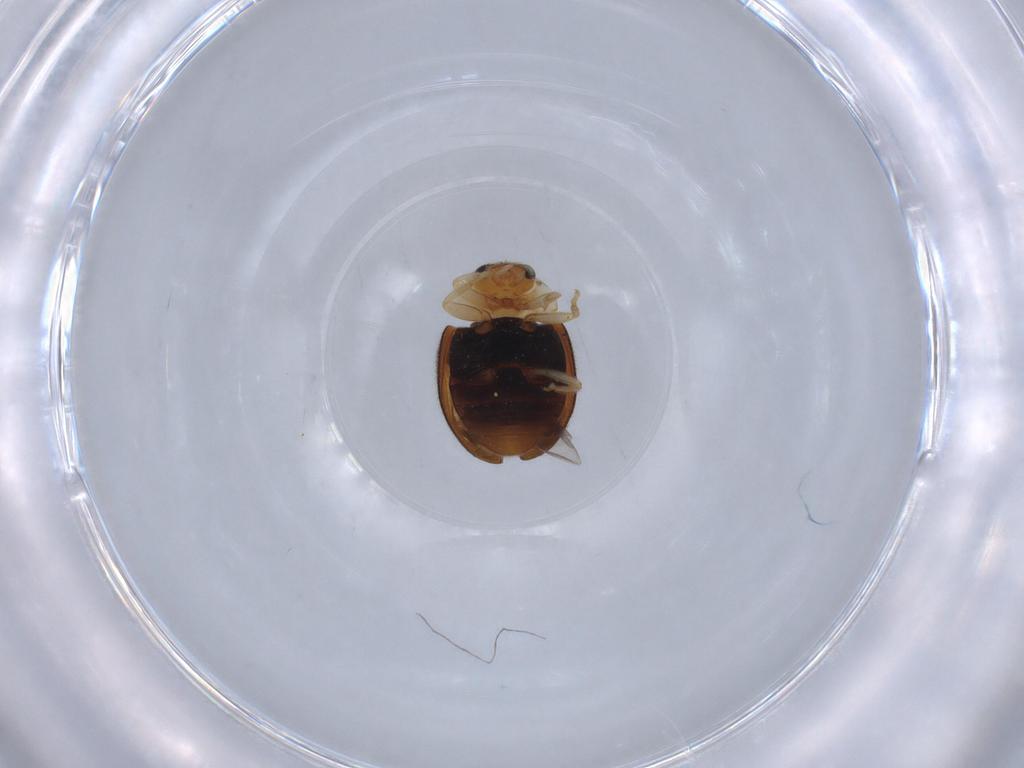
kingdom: Animalia
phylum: Arthropoda
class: Insecta
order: Coleoptera
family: Coccinellidae
